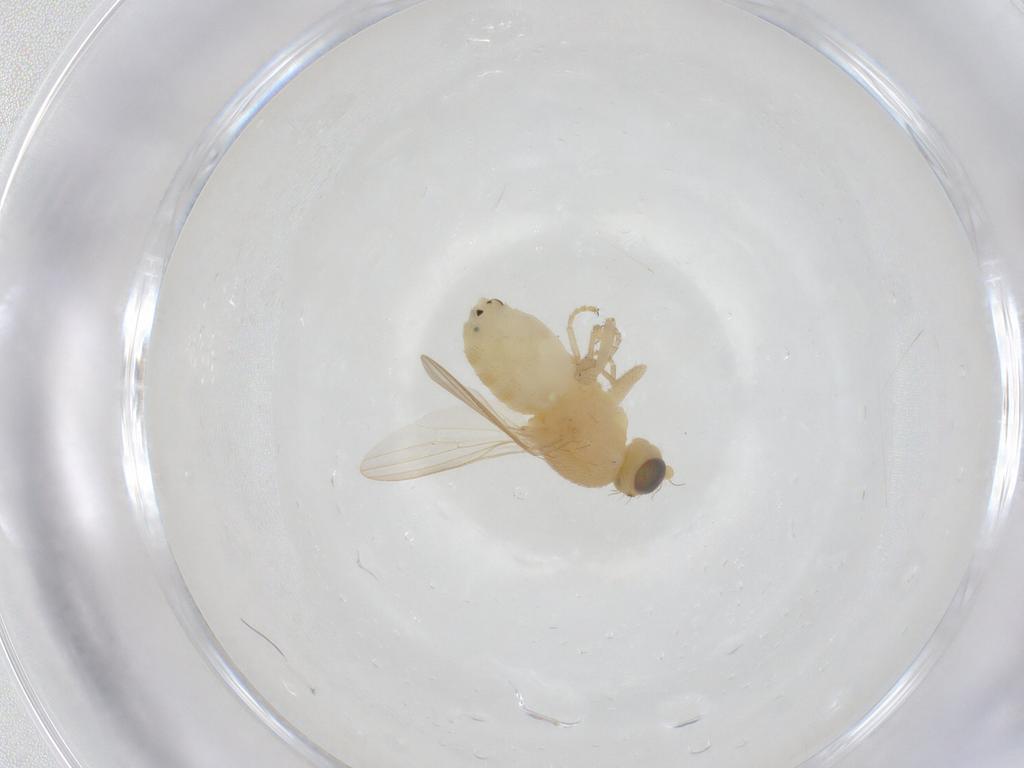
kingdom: Animalia
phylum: Arthropoda
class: Insecta
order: Diptera
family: Chyromyidae
